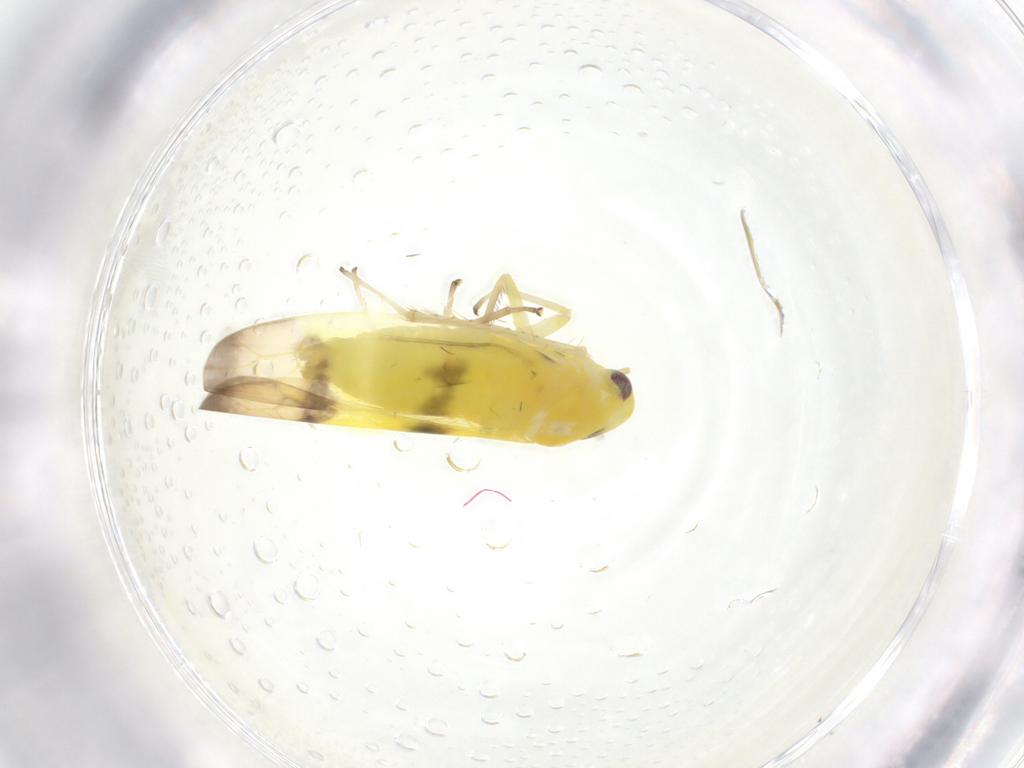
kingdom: Animalia
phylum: Arthropoda
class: Insecta
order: Hemiptera
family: Cicadellidae
